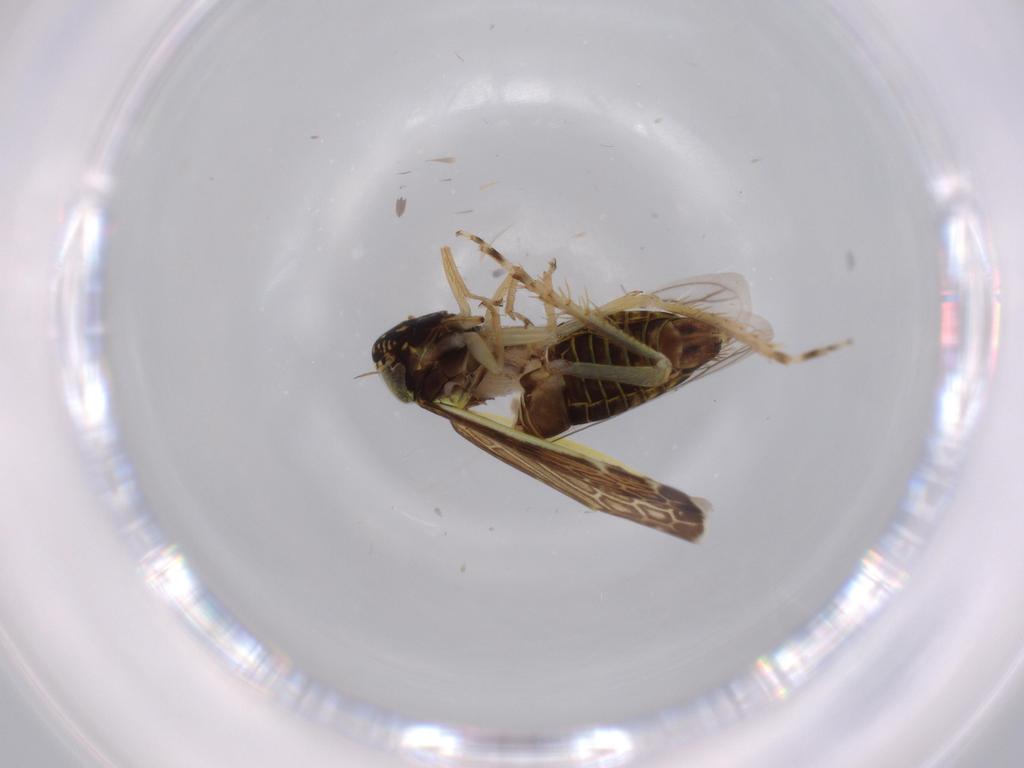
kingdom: Animalia
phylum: Arthropoda
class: Insecta
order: Hemiptera
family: Cicadellidae
